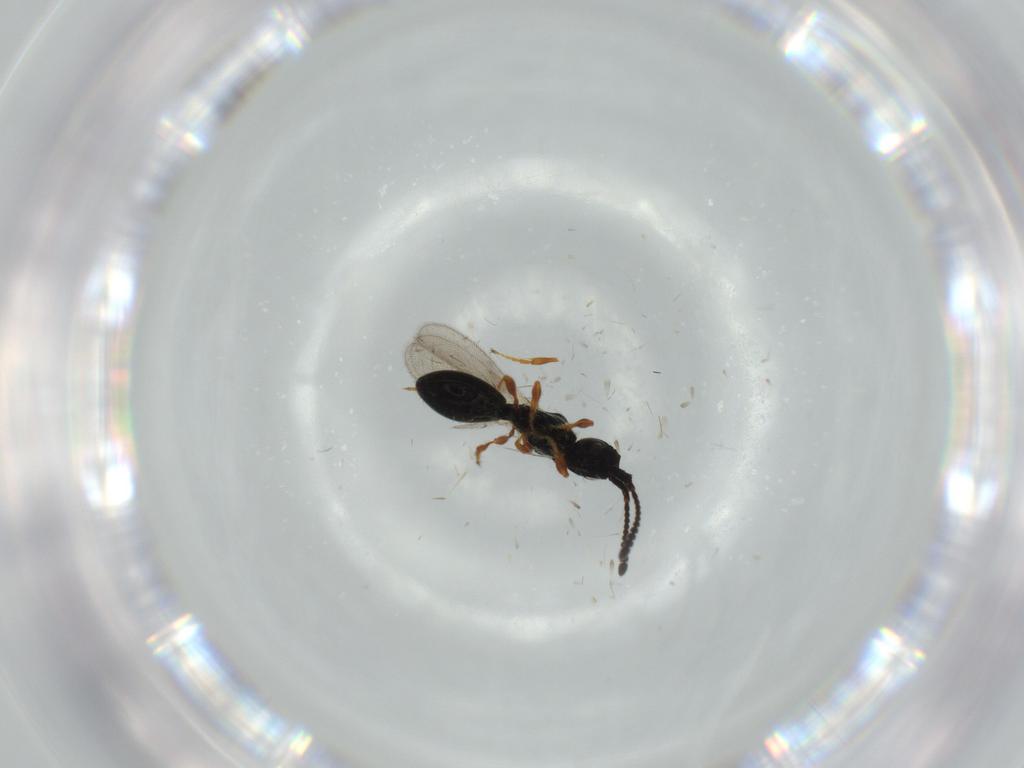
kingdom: Animalia
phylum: Arthropoda
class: Insecta
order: Hymenoptera
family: Diapriidae
